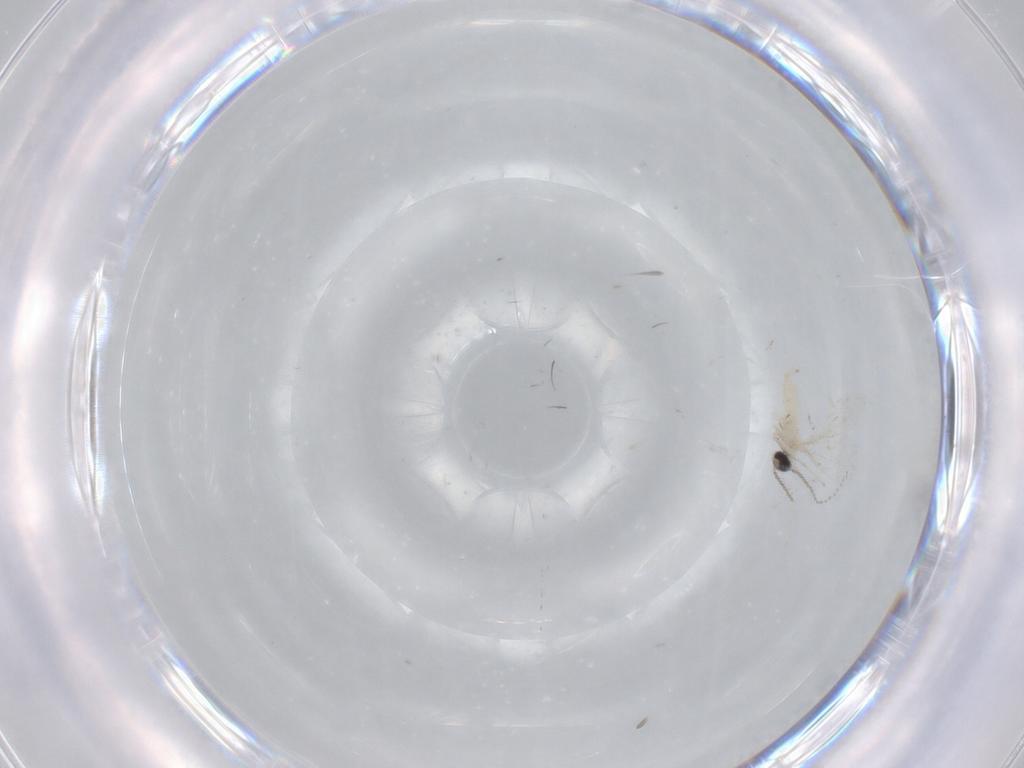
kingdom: Animalia
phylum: Arthropoda
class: Insecta
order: Diptera
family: Cecidomyiidae
